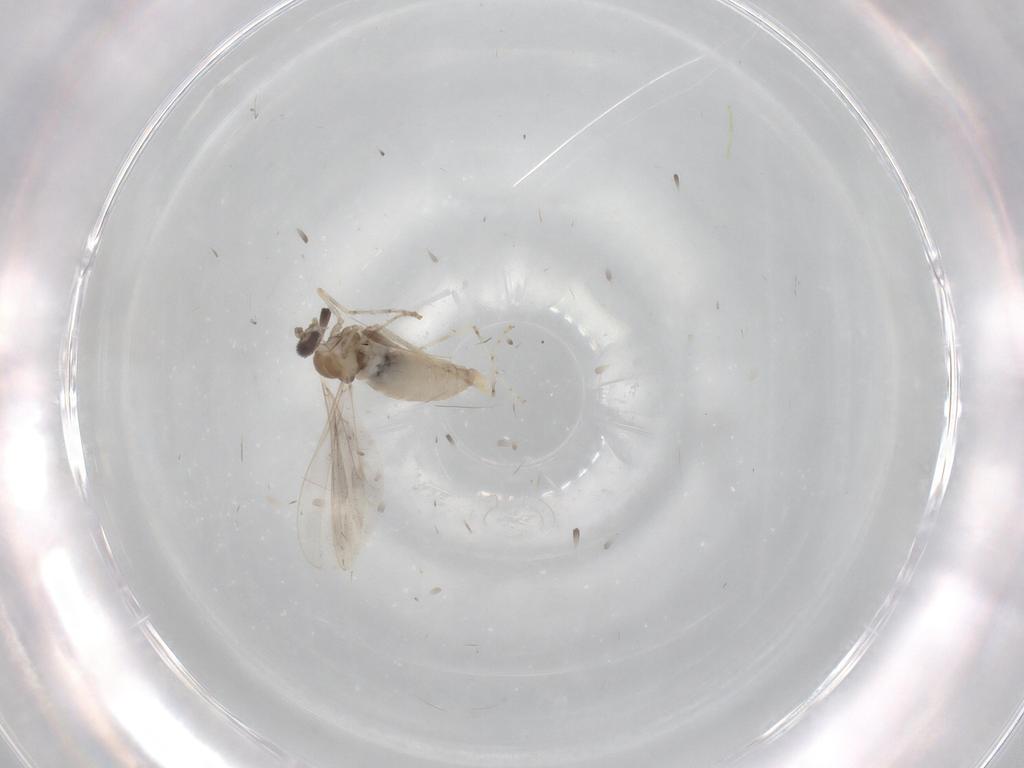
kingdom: Animalia
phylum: Arthropoda
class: Insecta
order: Diptera
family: Cecidomyiidae
